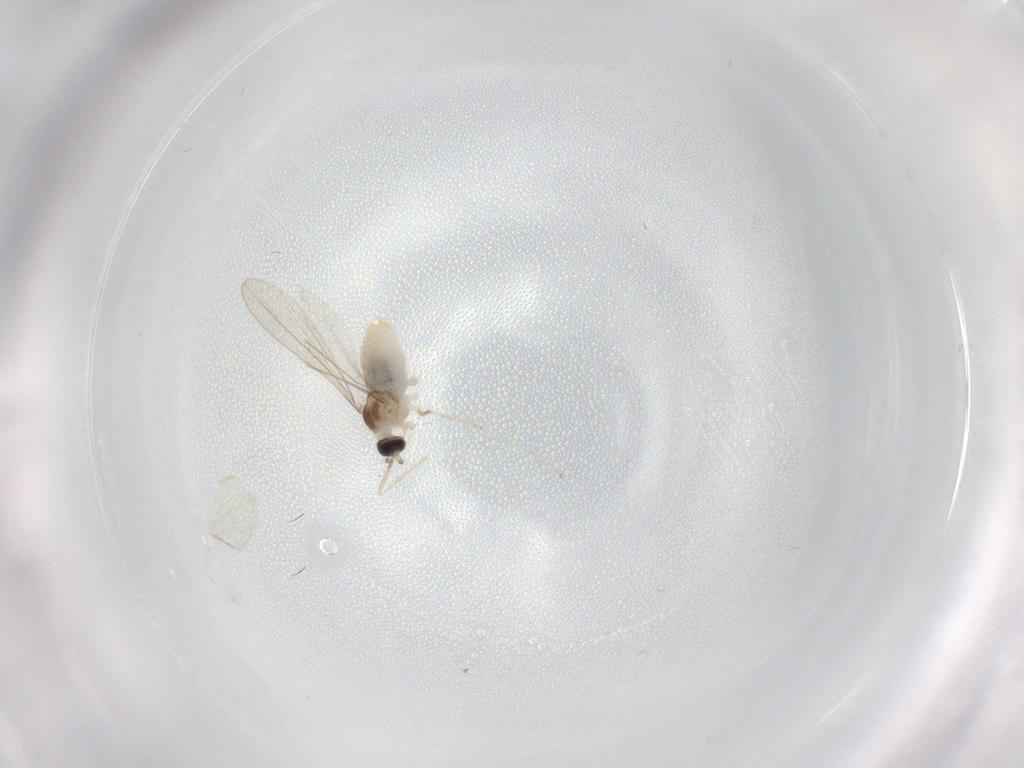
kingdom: Animalia
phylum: Arthropoda
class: Insecta
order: Diptera
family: Cecidomyiidae
